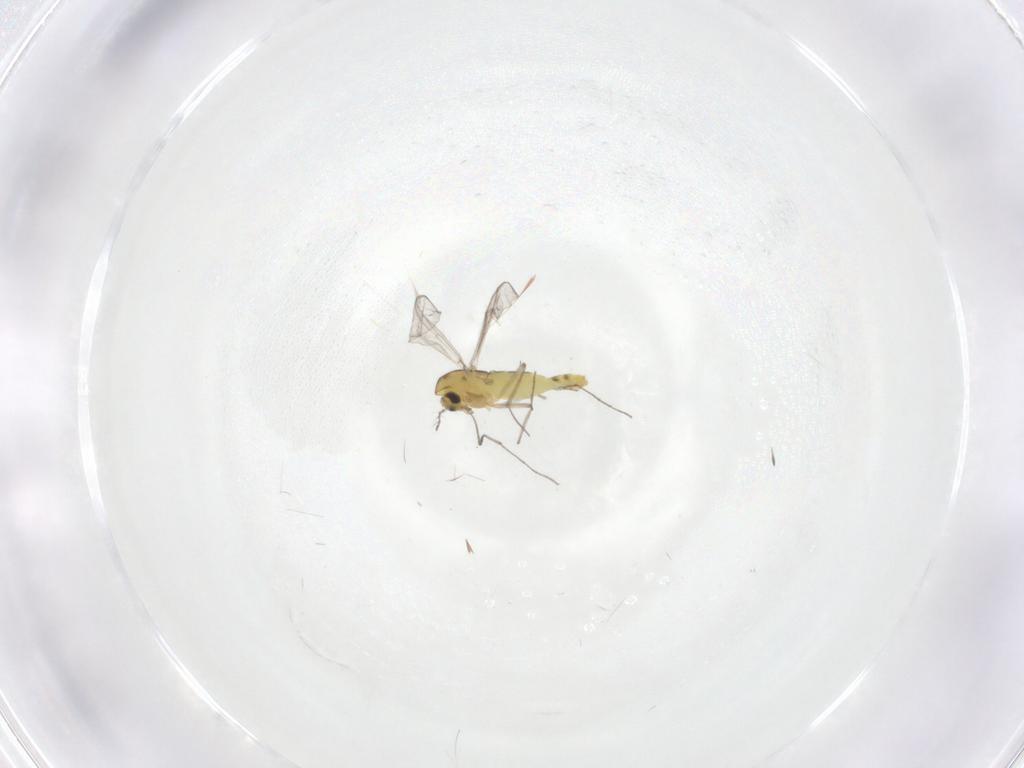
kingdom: Animalia
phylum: Arthropoda
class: Insecta
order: Diptera
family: Chironomidae
